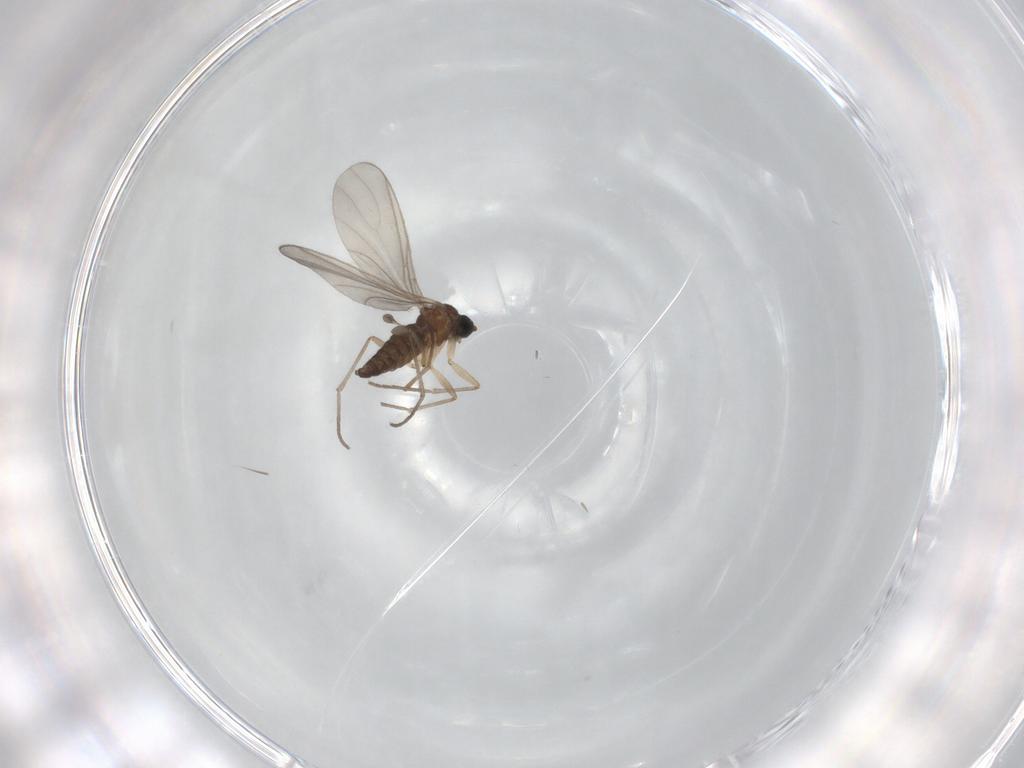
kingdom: Animalia
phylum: Arthropoda
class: Insecta
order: Diptera
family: Sciaridae
